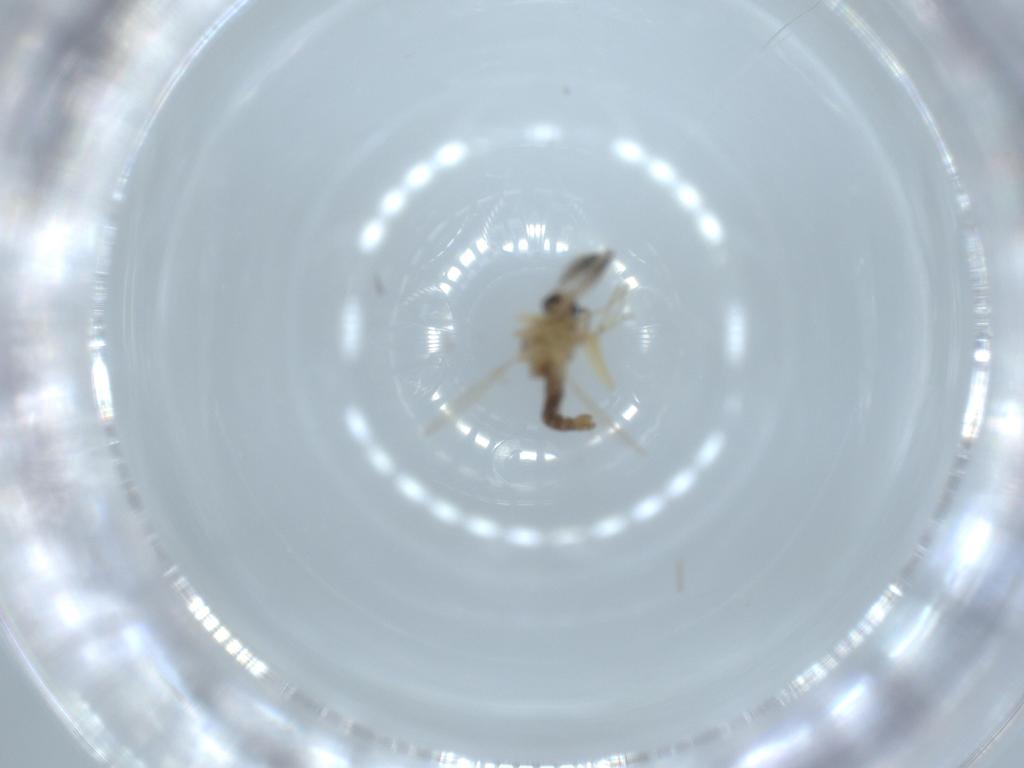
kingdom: Animalia
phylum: Arthropoda
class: Insecta
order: Diptera
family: Ceratopogonidae
